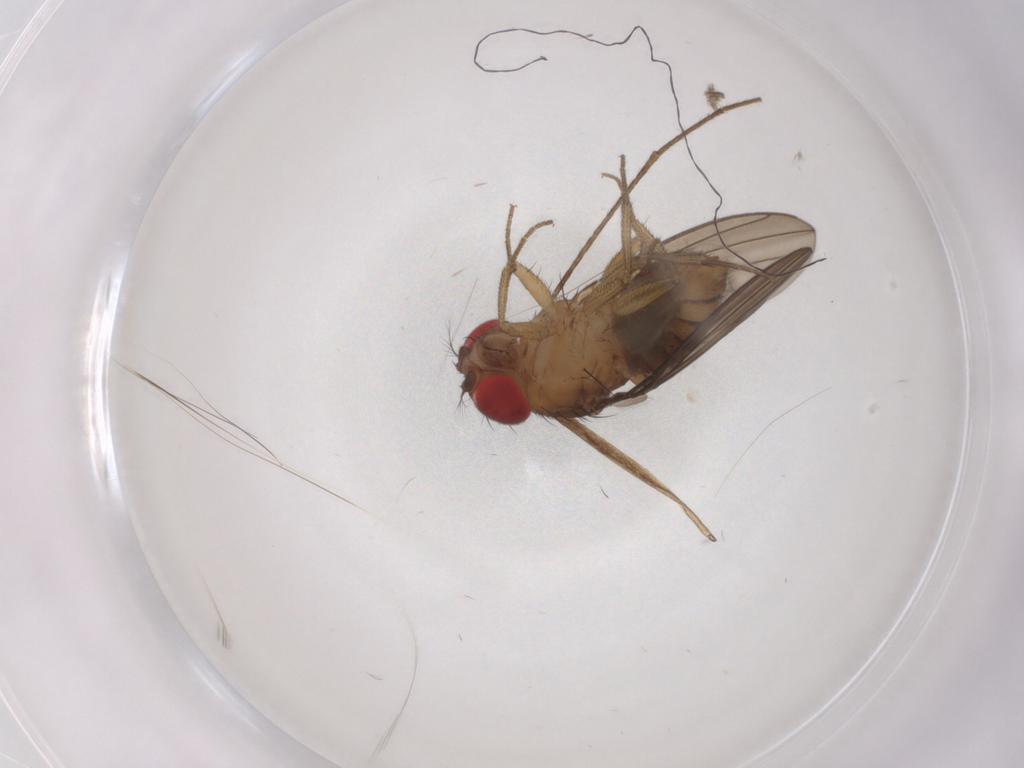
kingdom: Animalia
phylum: Arthropoda
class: Insecta
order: Diptera
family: Drosophilidae
